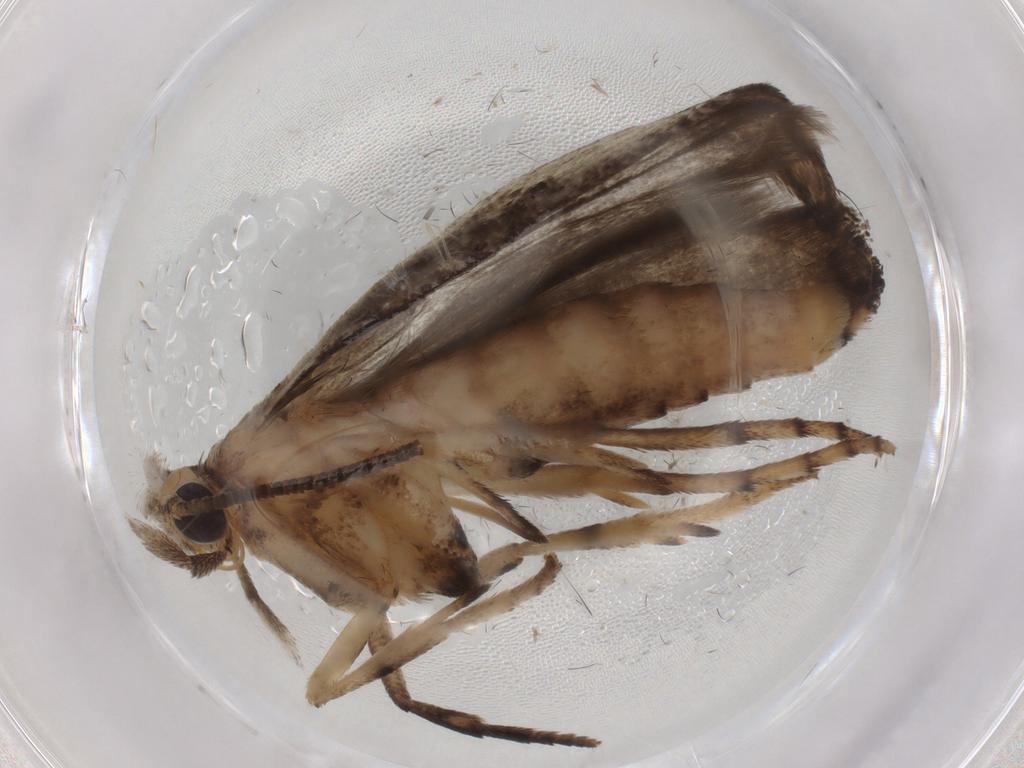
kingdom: Animalia
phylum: Arthropoda
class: Insecta
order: Lepidoptera
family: Yponomeutidae
